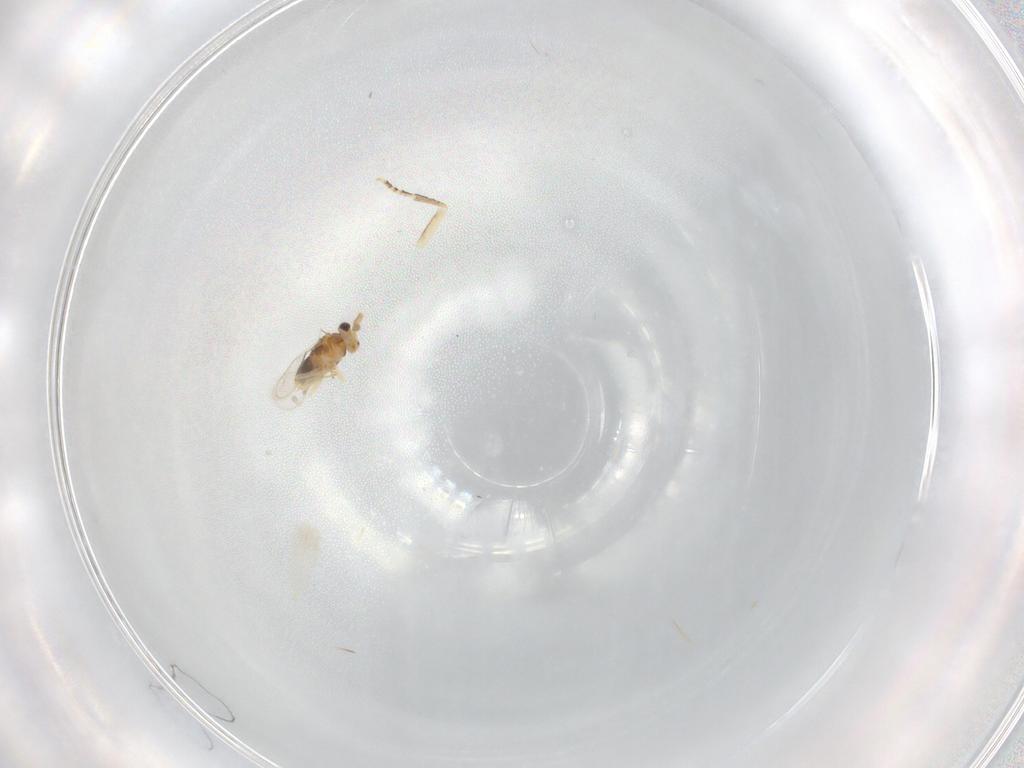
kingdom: Animalia
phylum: Arthropoda
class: Insecta
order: Hymenoptera
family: Aphelinidae
